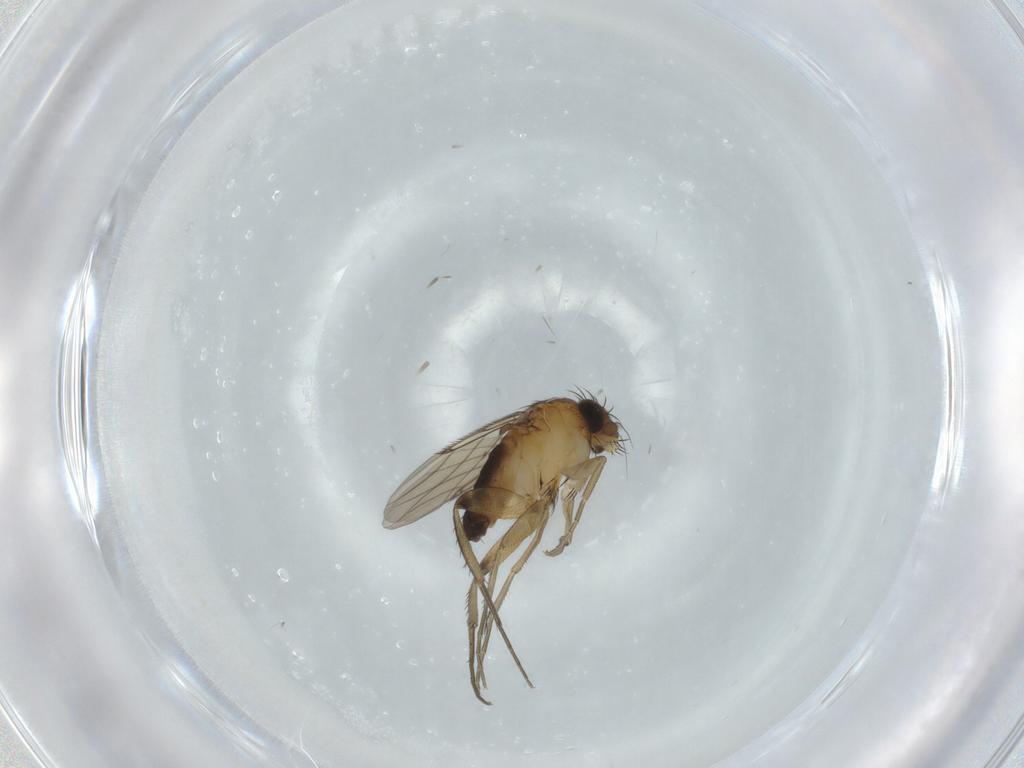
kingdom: Animalia
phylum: Arthropoda
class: Insecta
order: Diptera
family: Phoridae
